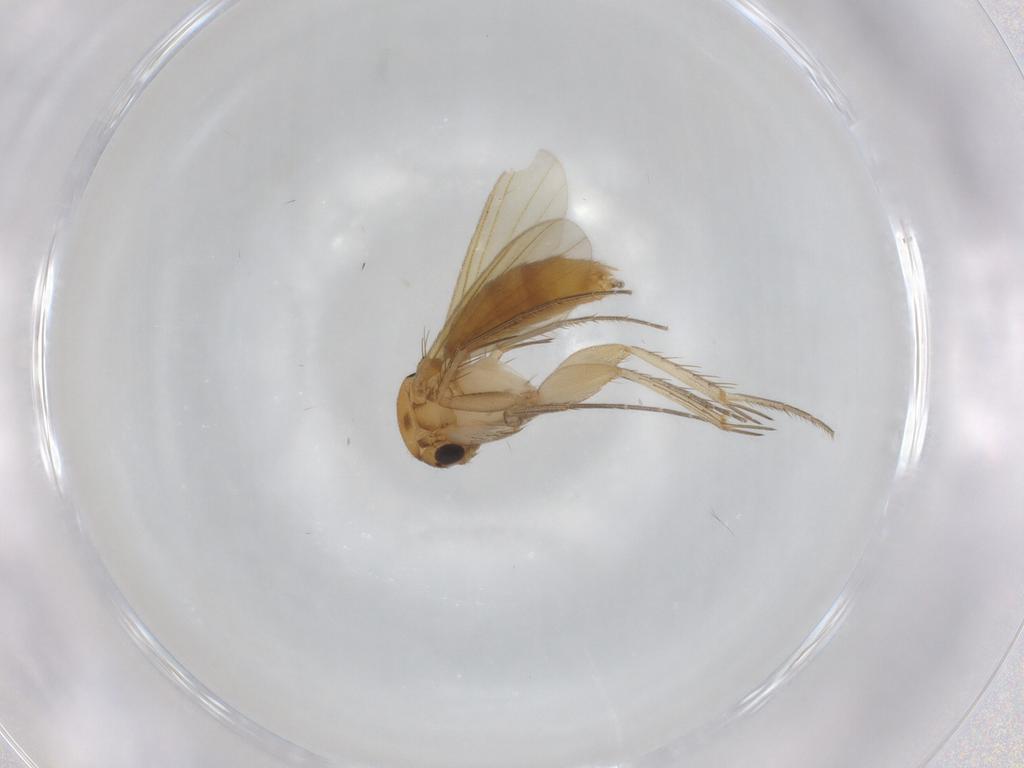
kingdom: Animalia
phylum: Arthropoda
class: Insecta
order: Diptera
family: Mycetophilidae
